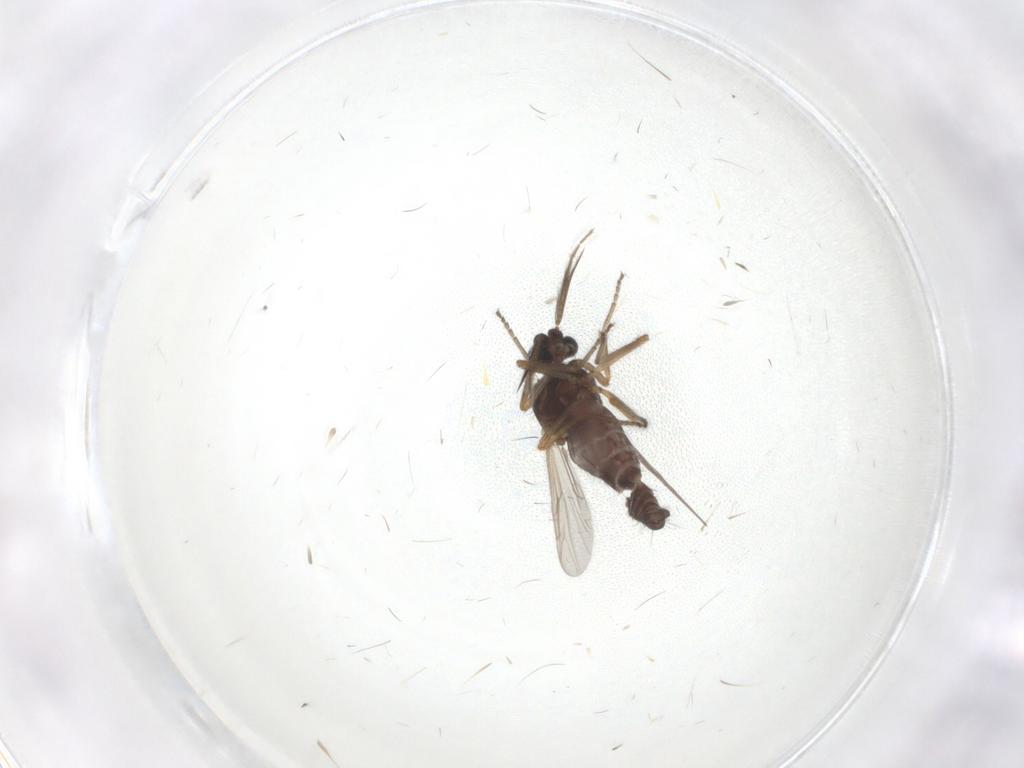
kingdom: Animalia
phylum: Arthropoda
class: Insecta
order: Diptera
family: Ceratopogonidae
